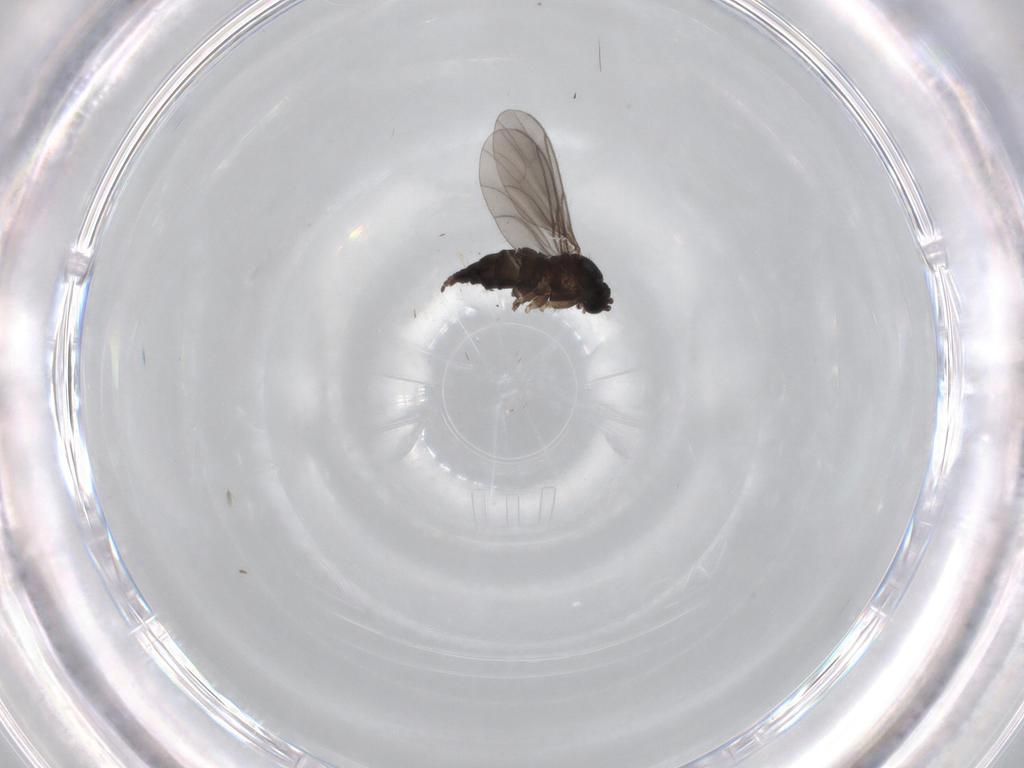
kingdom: Animalia
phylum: Arthropoda
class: Insecta
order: Diptera
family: Sciaridae
